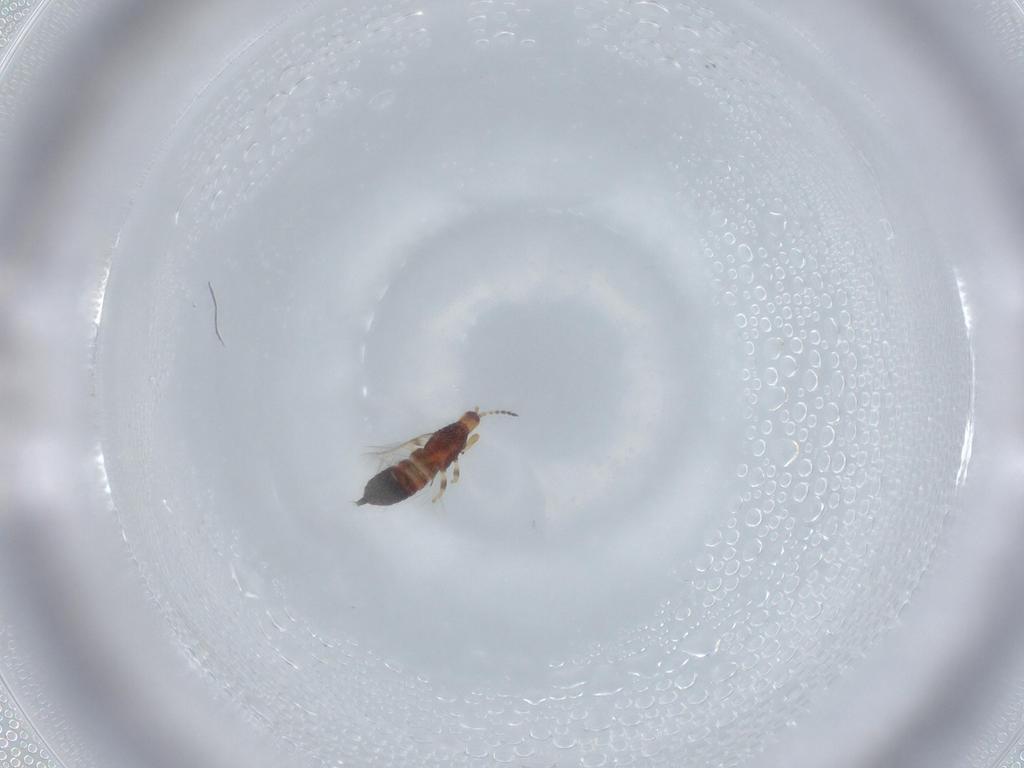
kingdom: Animalia
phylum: Arthropoda
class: Insecta
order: Thysanoptera
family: Phlaeothripidae
